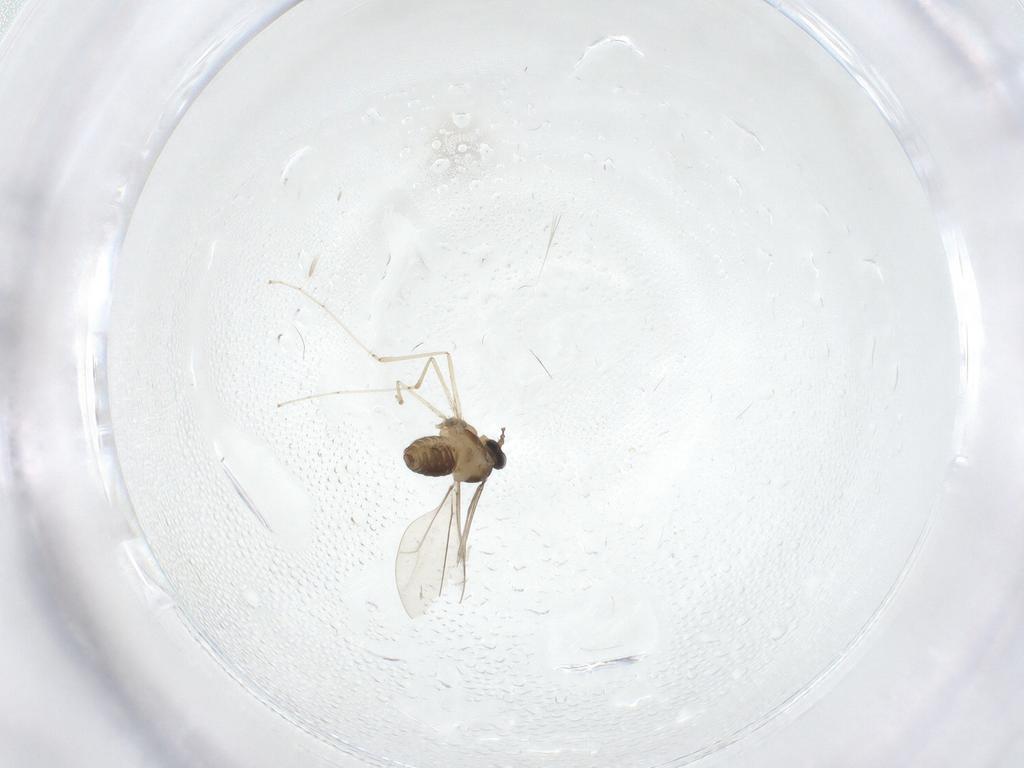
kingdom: Animalia
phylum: Arthropoda
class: Insecta
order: Diptera
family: Cecidomyiidae
